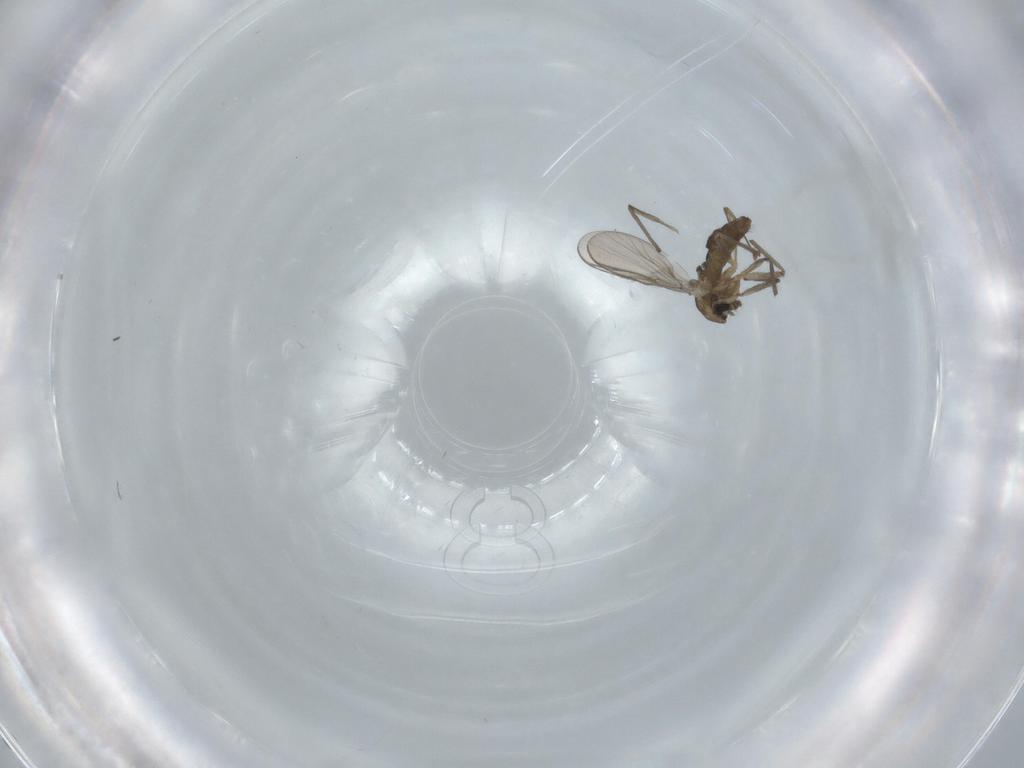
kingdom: Animalia
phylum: Arthropoda
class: Insecta
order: Diptera
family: Chironomidae
